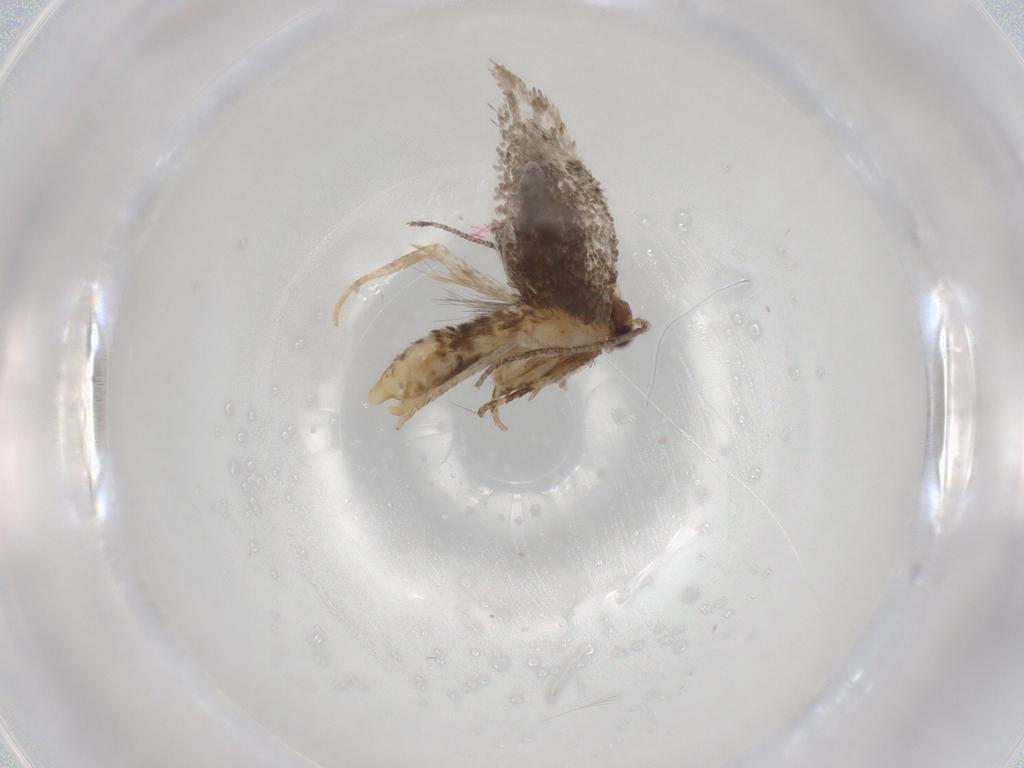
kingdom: Animalia
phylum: Arthropoda
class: Insecta
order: Lepidoptera
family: Tineidae
